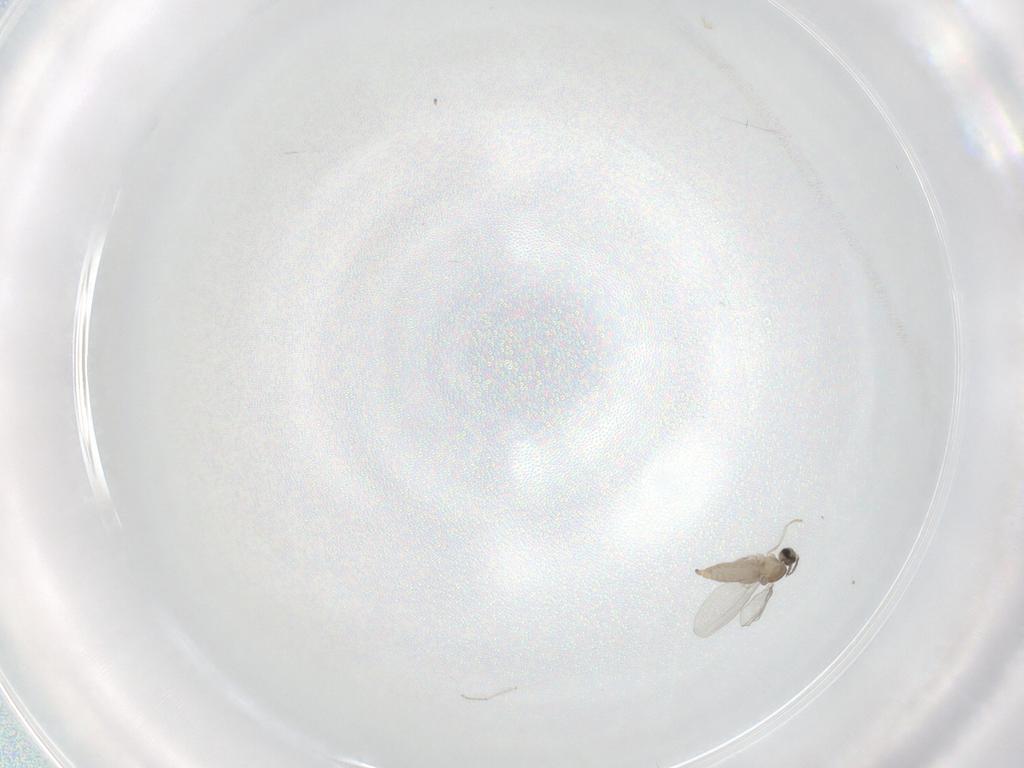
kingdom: Animalia
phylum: Arthropoda
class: Insecta
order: Diptera
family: Cecidomyiidae
